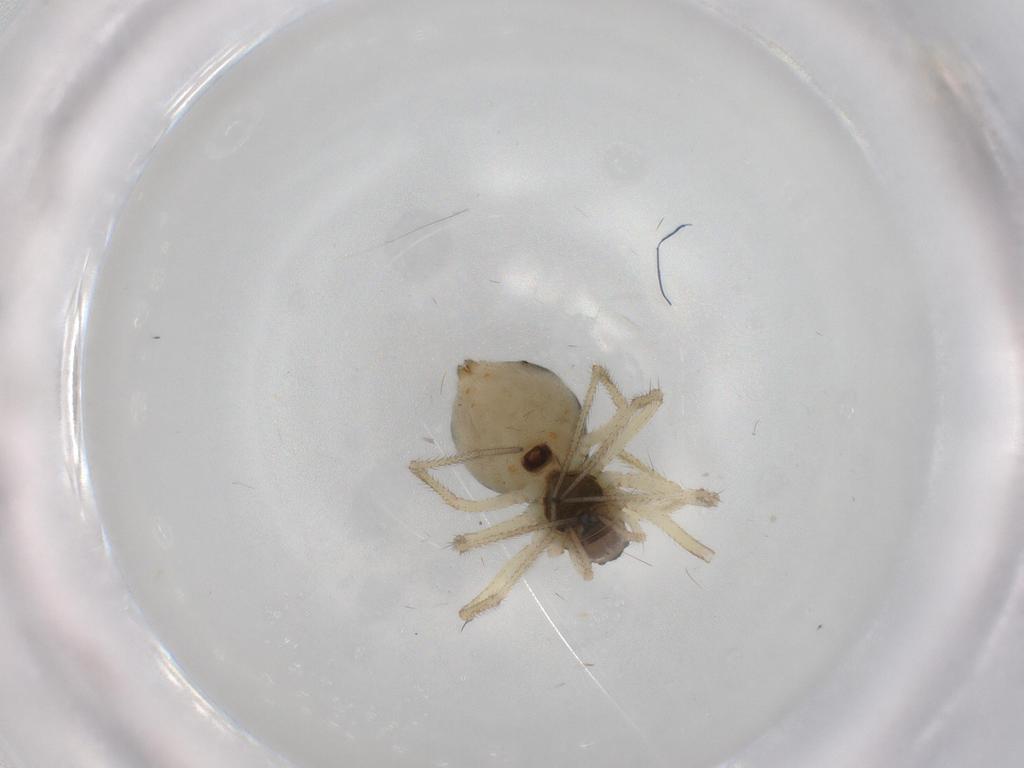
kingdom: Animalia
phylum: Arthropoda
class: Arachnida
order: Araneae
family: Linyphiidae
